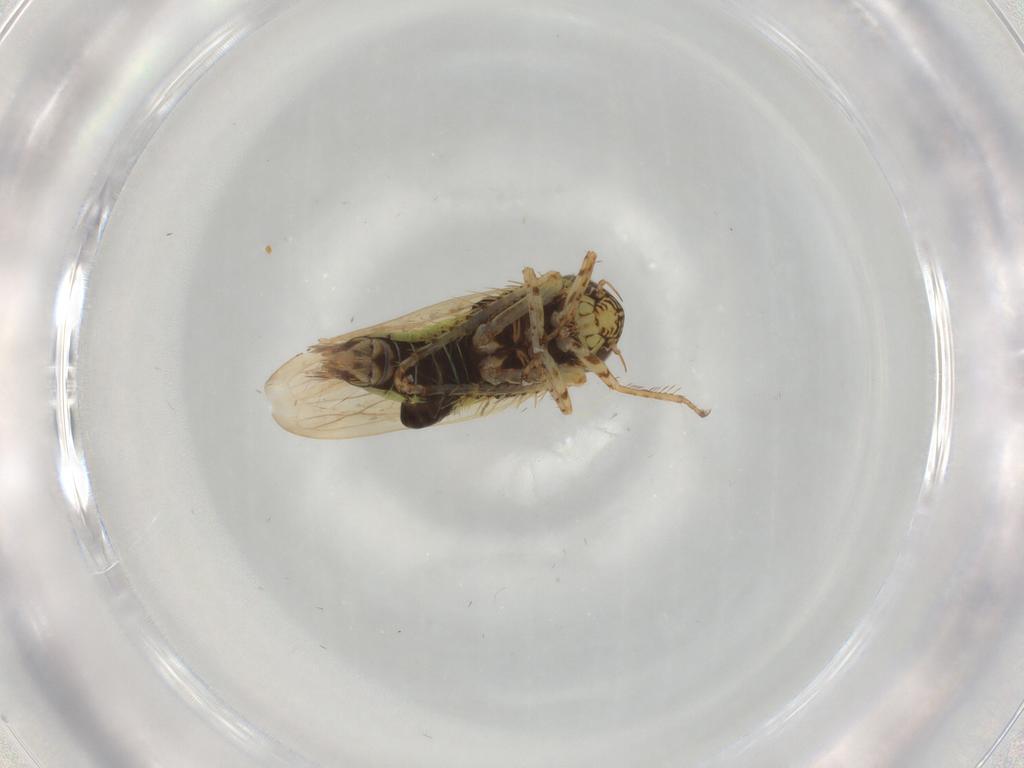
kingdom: Animalia
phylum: Arthropoda
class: Insecta
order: Hemiptera
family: Cicadellidae
